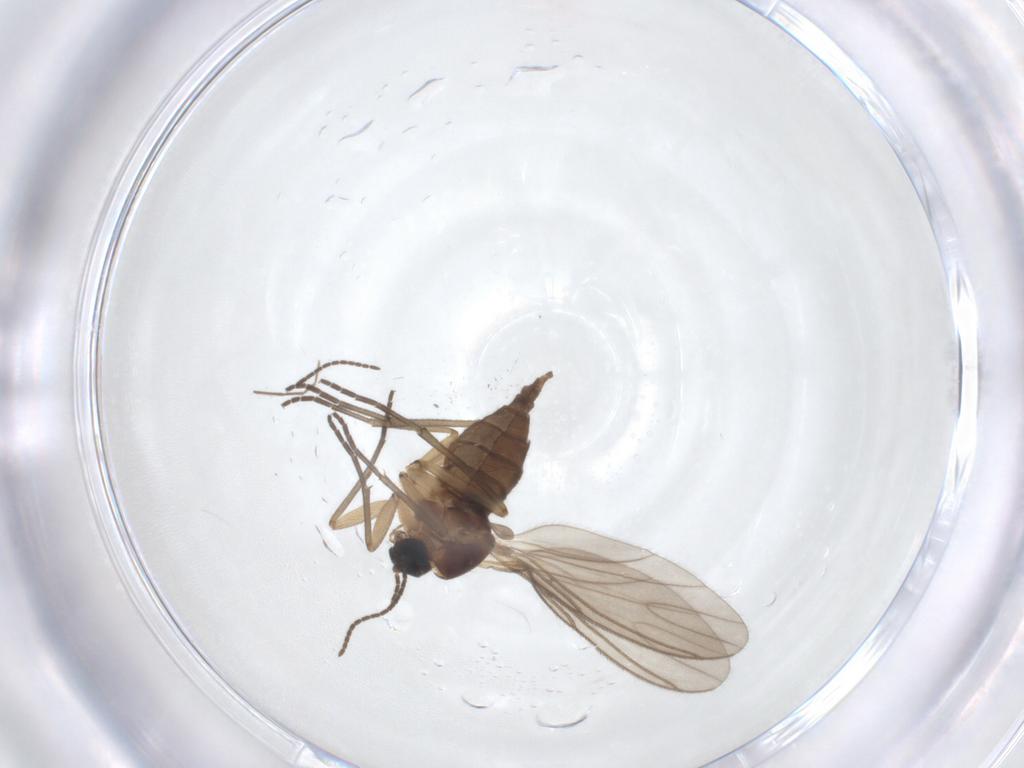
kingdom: Animalia
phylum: Arthropoda
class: Insecta
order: Diptera
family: Sciaridae
